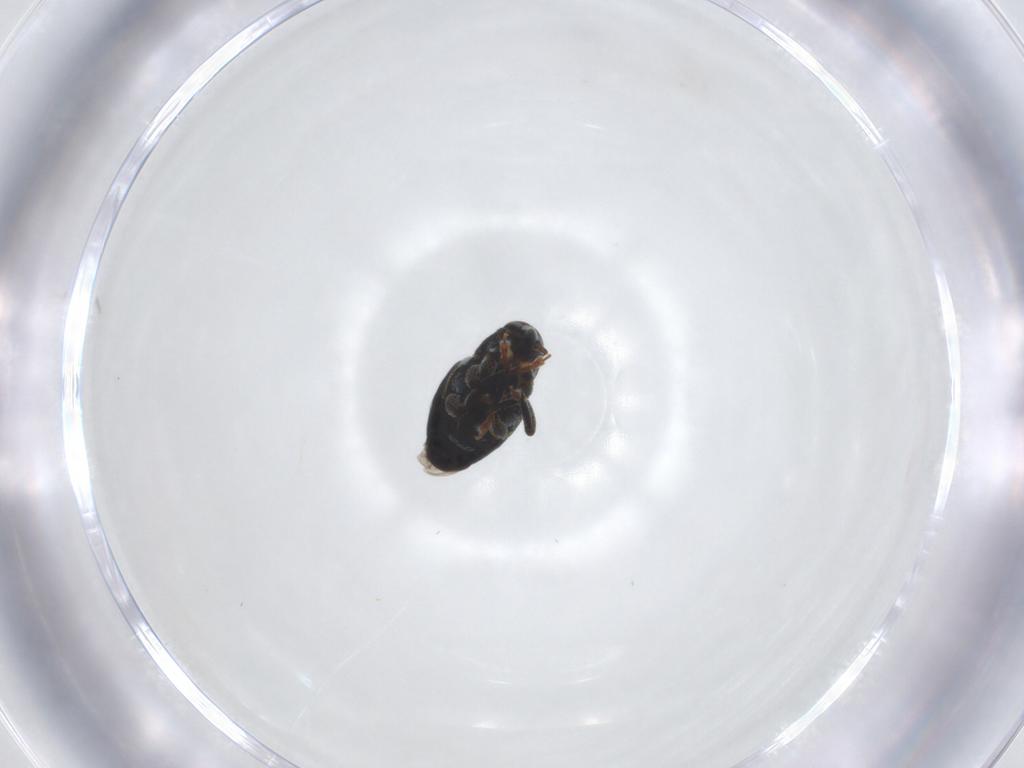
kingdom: Animalia
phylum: Arthropoda
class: Insecta
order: Coleoptera
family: Curculionidae
